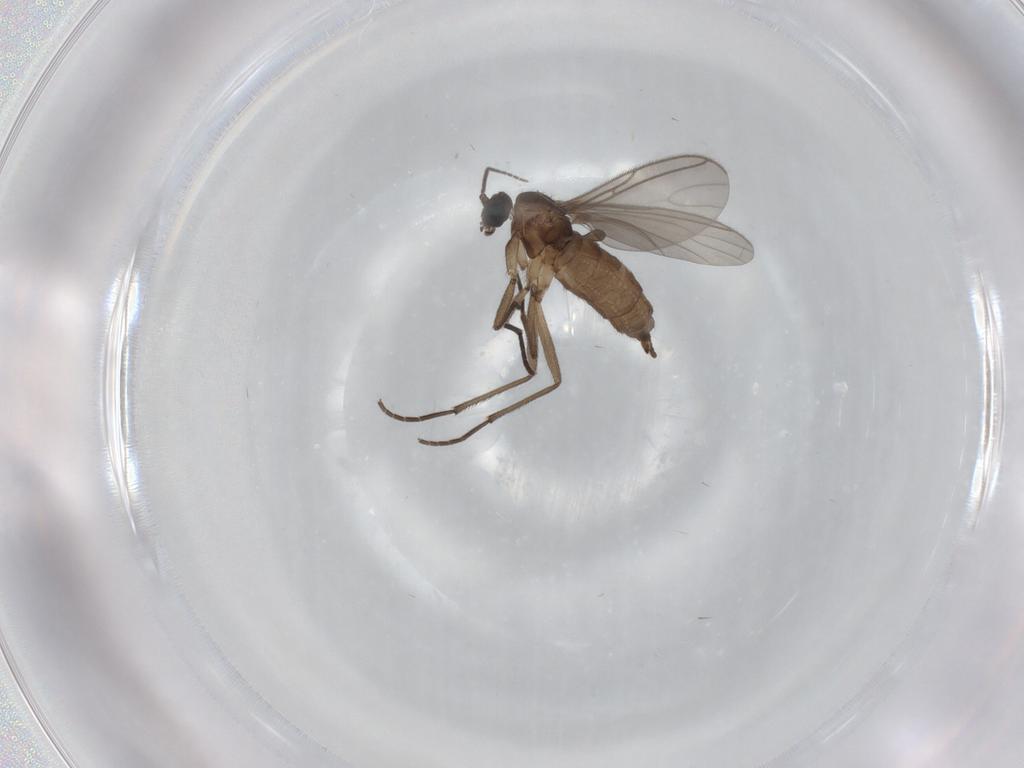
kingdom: Animalia
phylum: Arthropoda
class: Insecta
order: Diptera
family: Sciaridae
